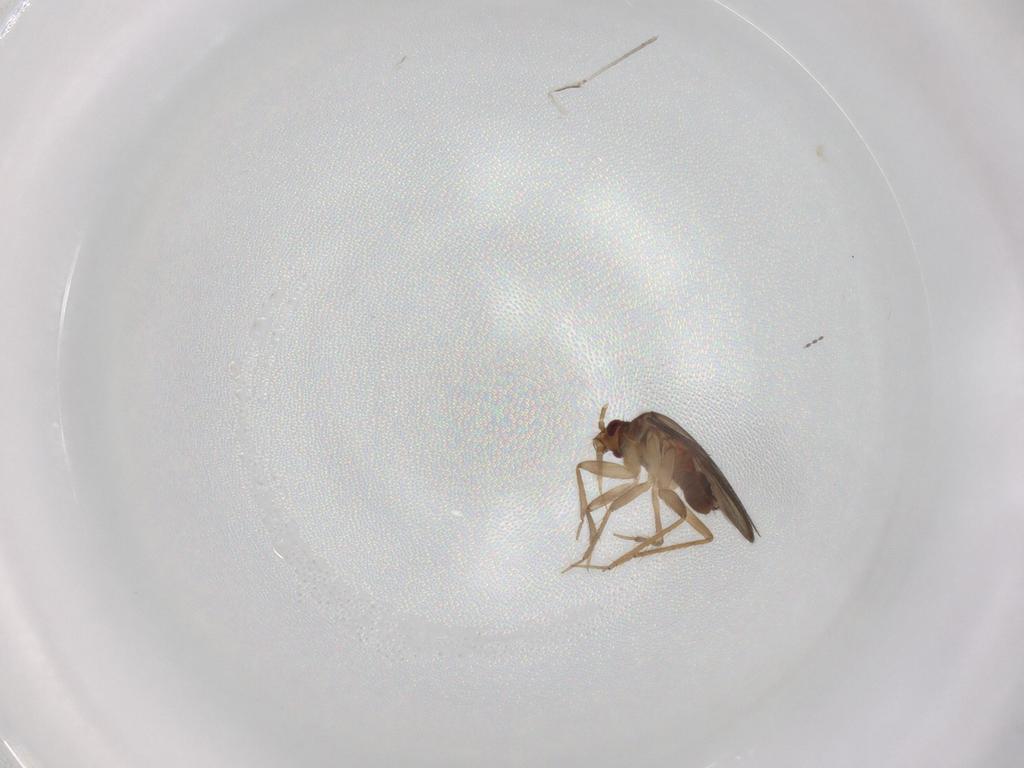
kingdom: Animalia
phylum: Arthropoda
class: Insecta
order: Hemiptera
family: Ceratocombidae
